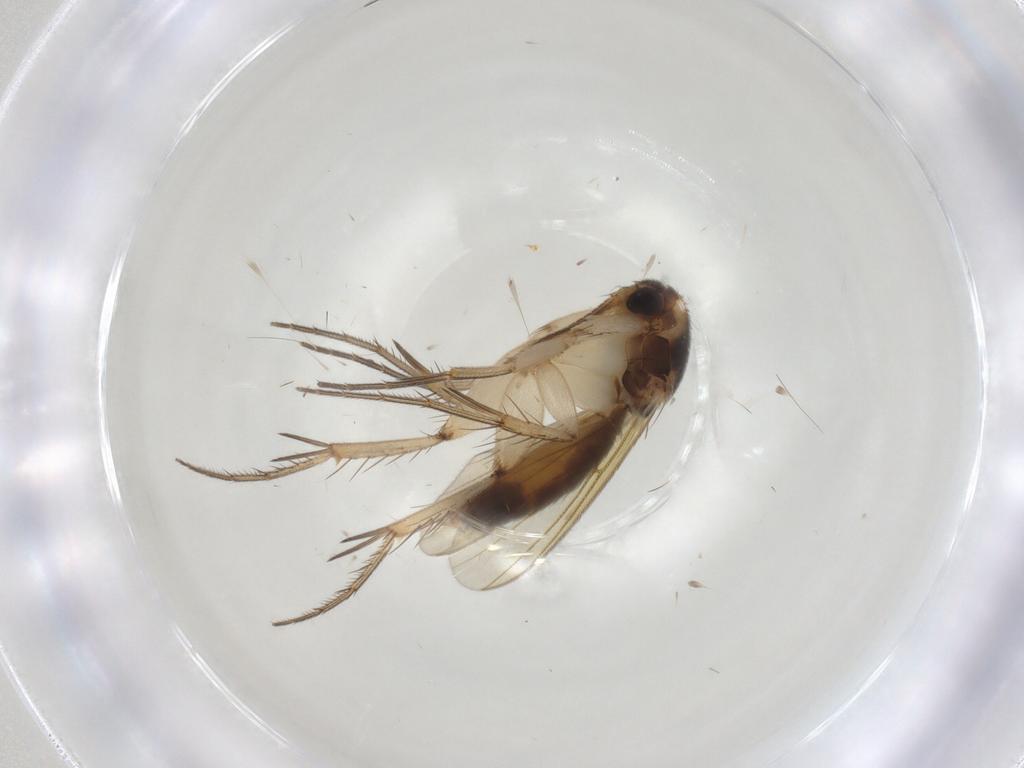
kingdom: Animalia
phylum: Arthropoda
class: Insecta
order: Diptera
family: Mycetophilidae
